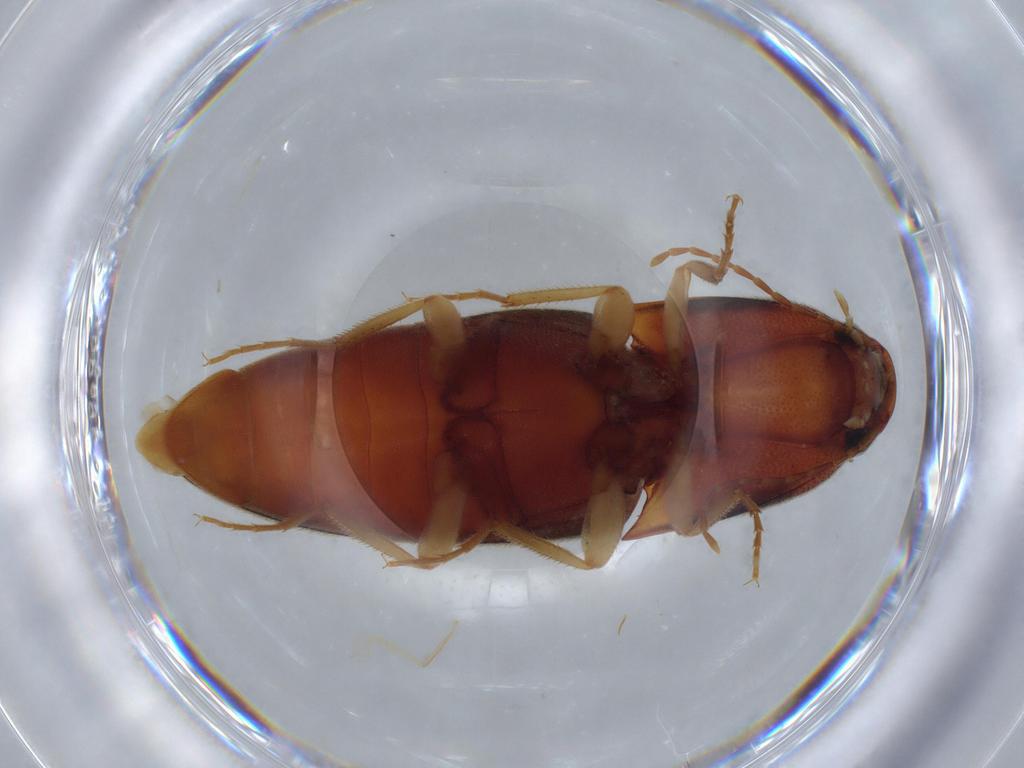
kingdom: Animalia
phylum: Arthropoda
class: Insecta
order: Coleoptera
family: Elateridae
